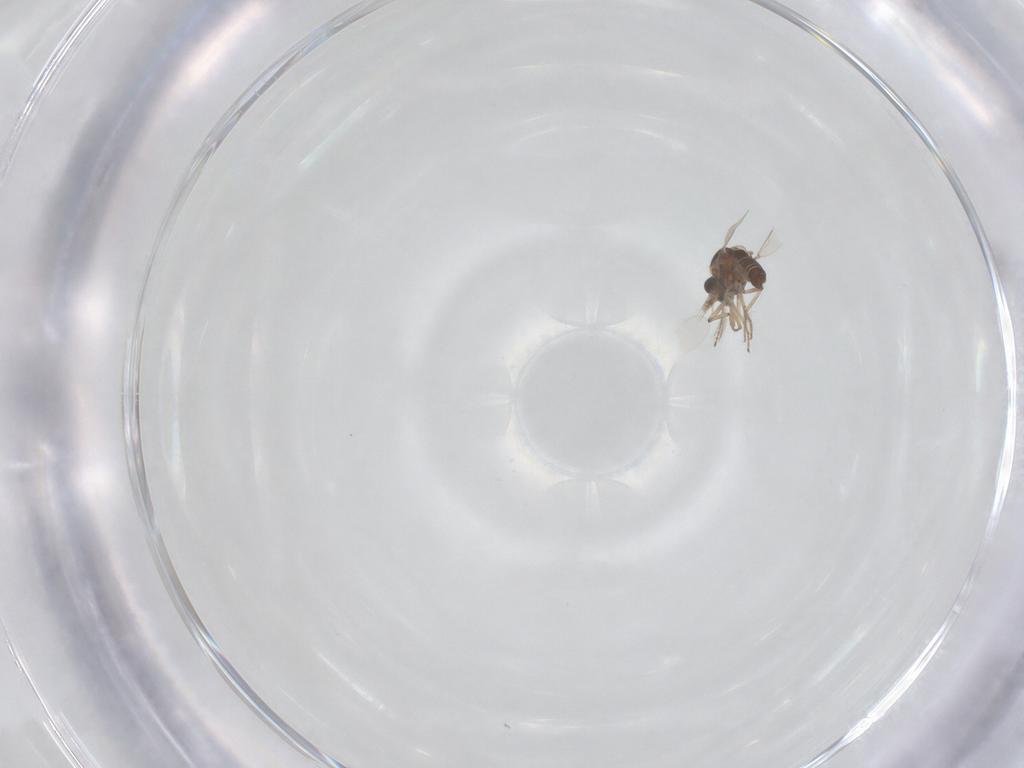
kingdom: Animalia
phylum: Arthropoda
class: Insecta
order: Diptera
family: Ceratopogonidae
